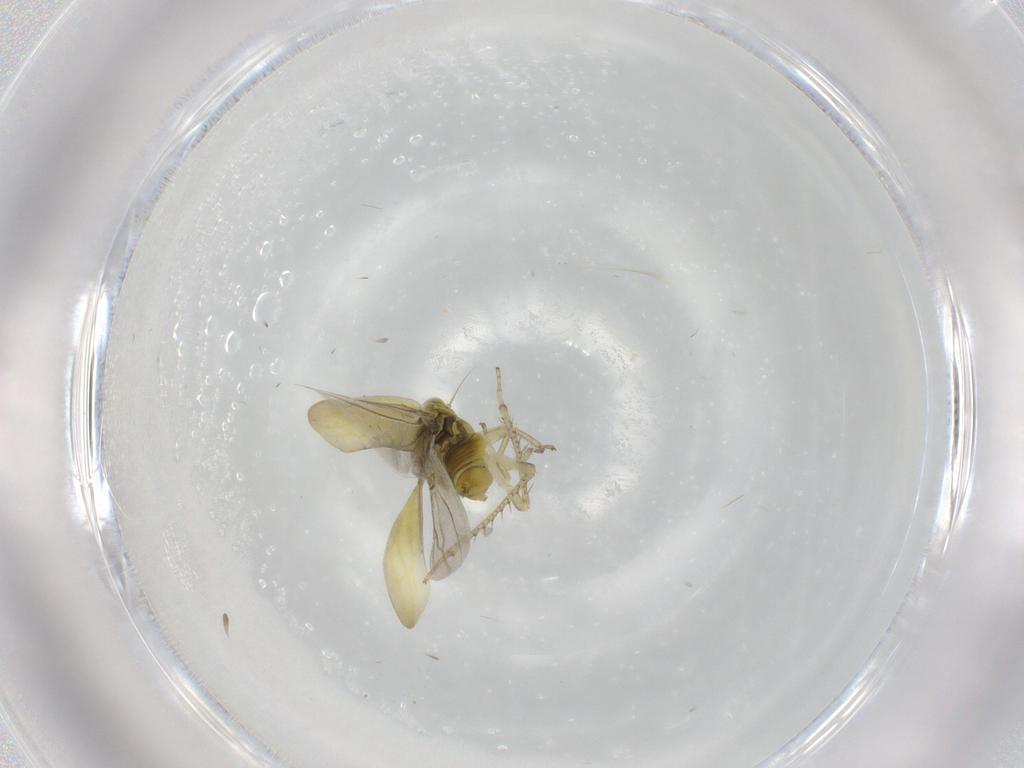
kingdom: Animalia
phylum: Arthropoda
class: Insecta
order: Hemiptera
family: Cicadellidae
